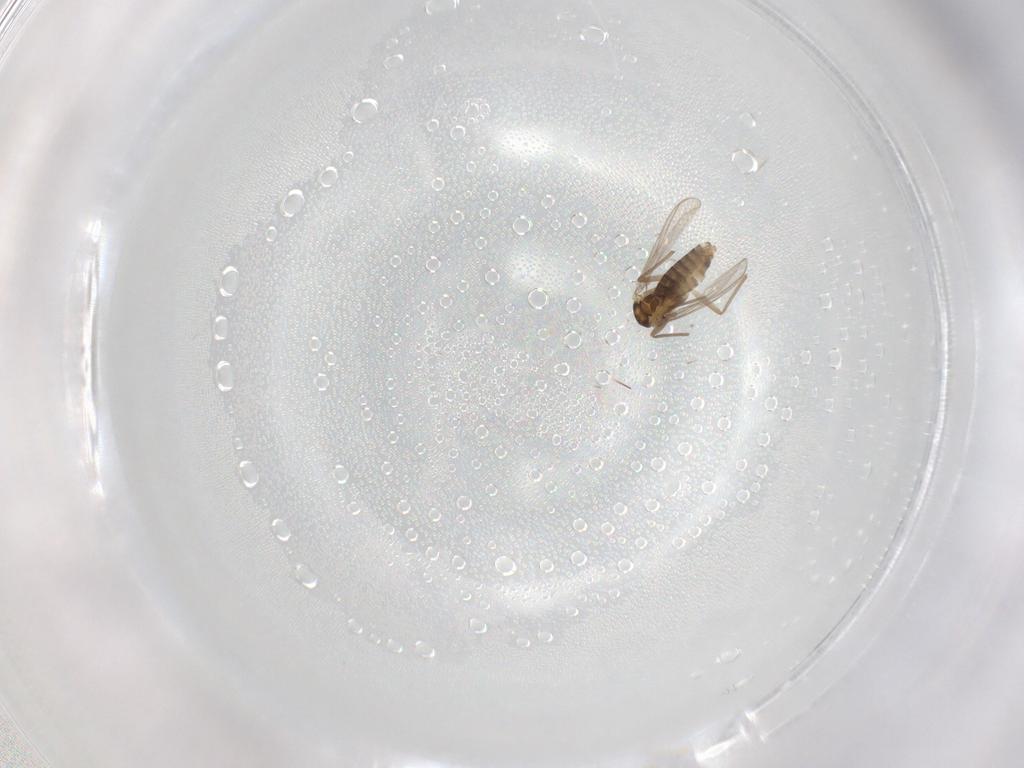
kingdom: Animalia
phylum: Arthropoda
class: Insecta
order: Diptera
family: Chironomidae
